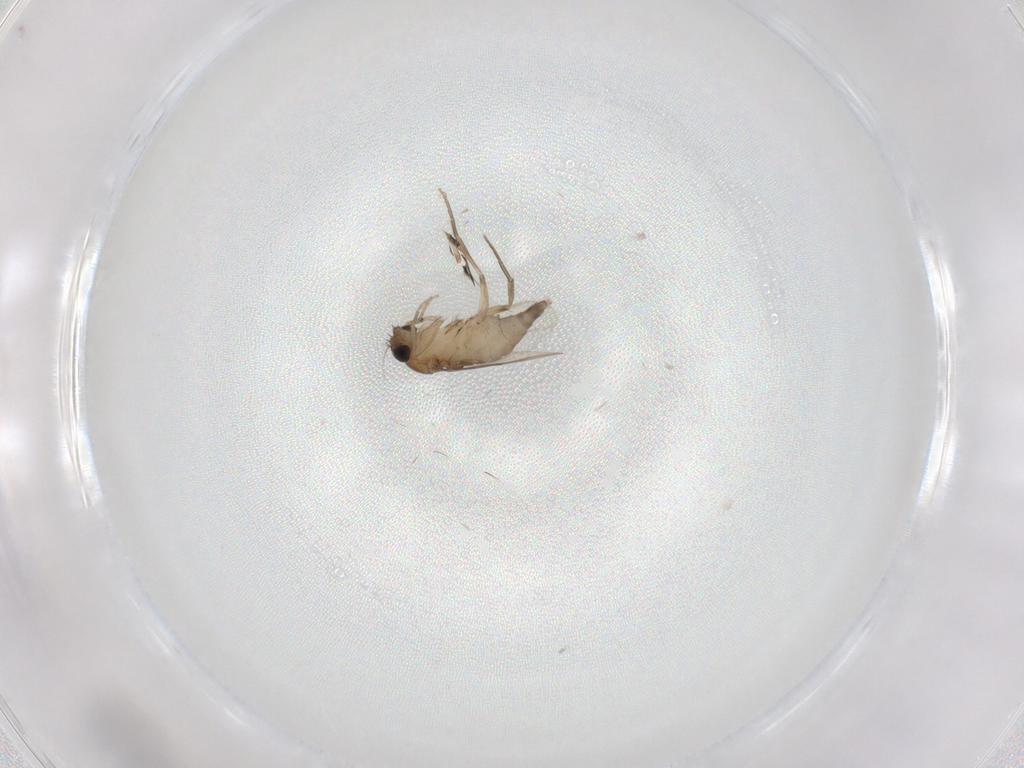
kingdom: Animalia
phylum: Arthropoda
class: Insecta
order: Diptera
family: Phoridae
